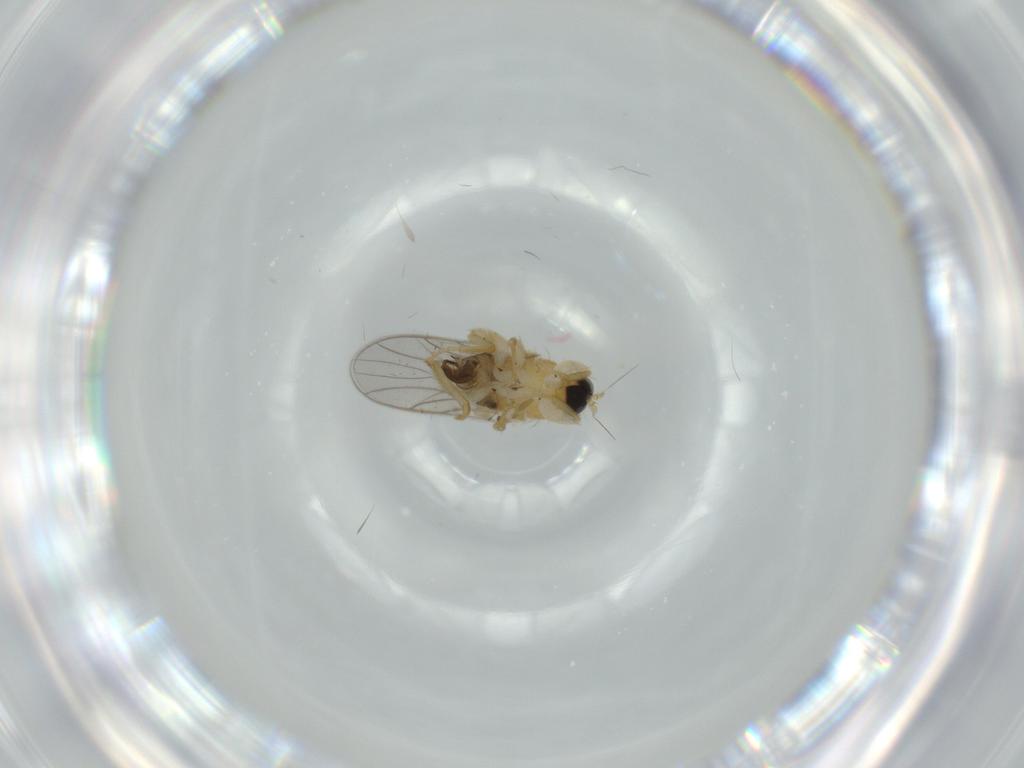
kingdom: Animalia
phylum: Arthropoda
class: Insecta
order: Diptera
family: Hybotidae
